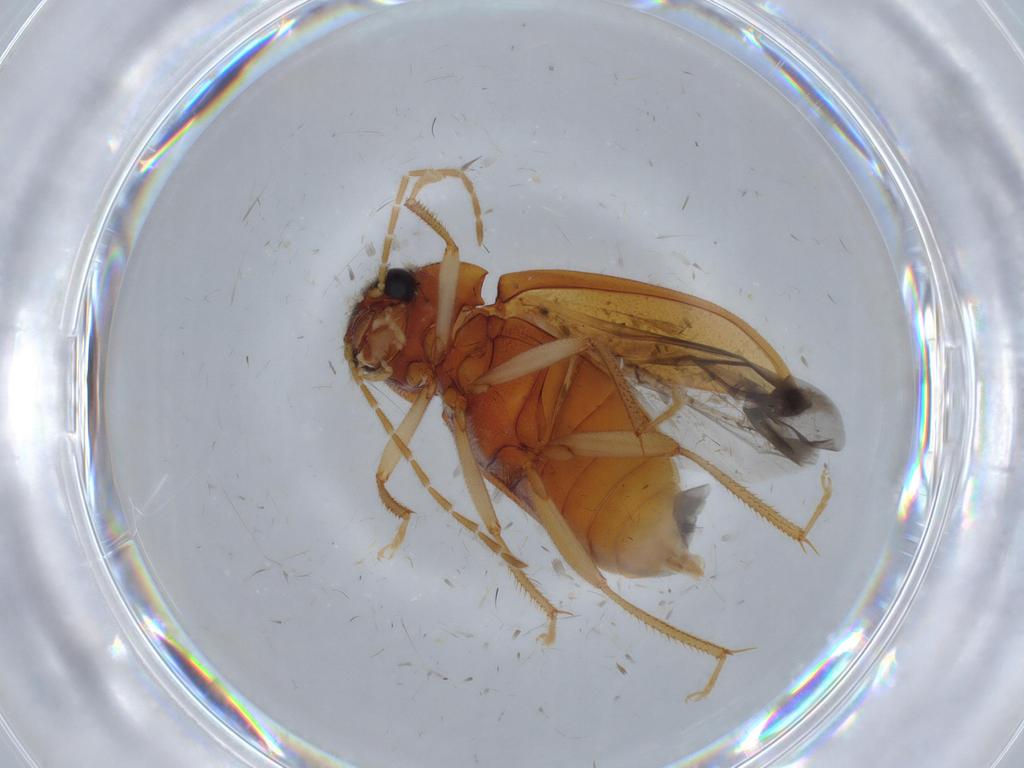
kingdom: Animalia
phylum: Arthropoda
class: Insecta
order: Coleoptera
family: Ptilodactylidae
